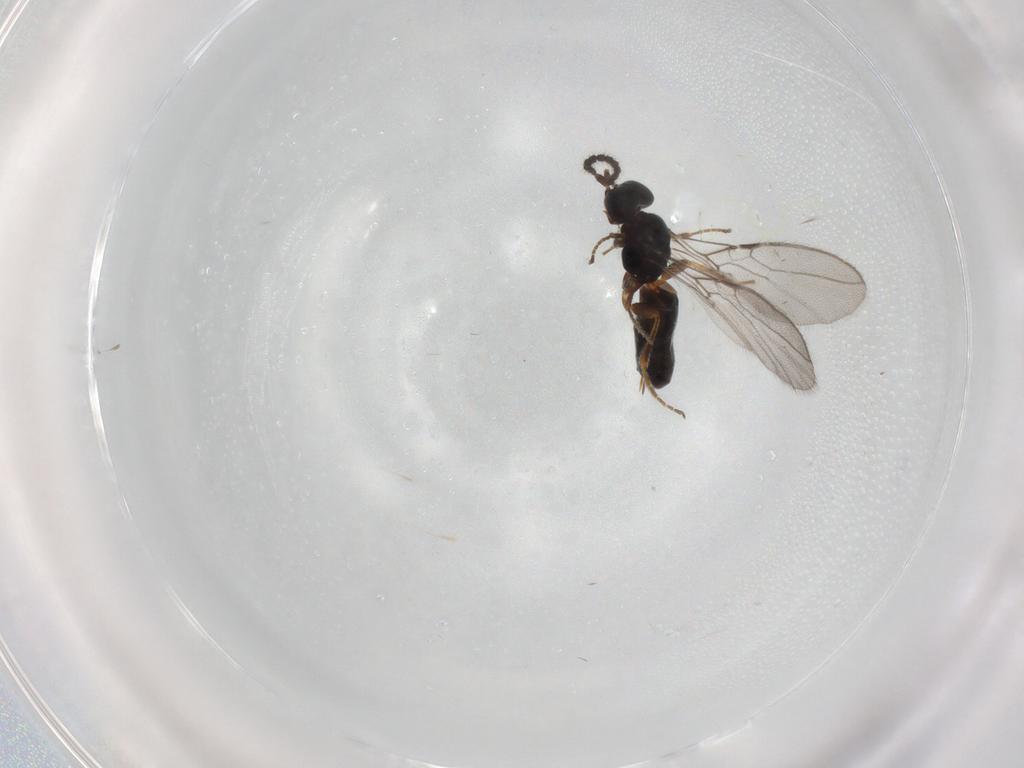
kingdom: Animalia
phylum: Arthropoda
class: Insecta
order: Hymenoptera
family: Braconidae
